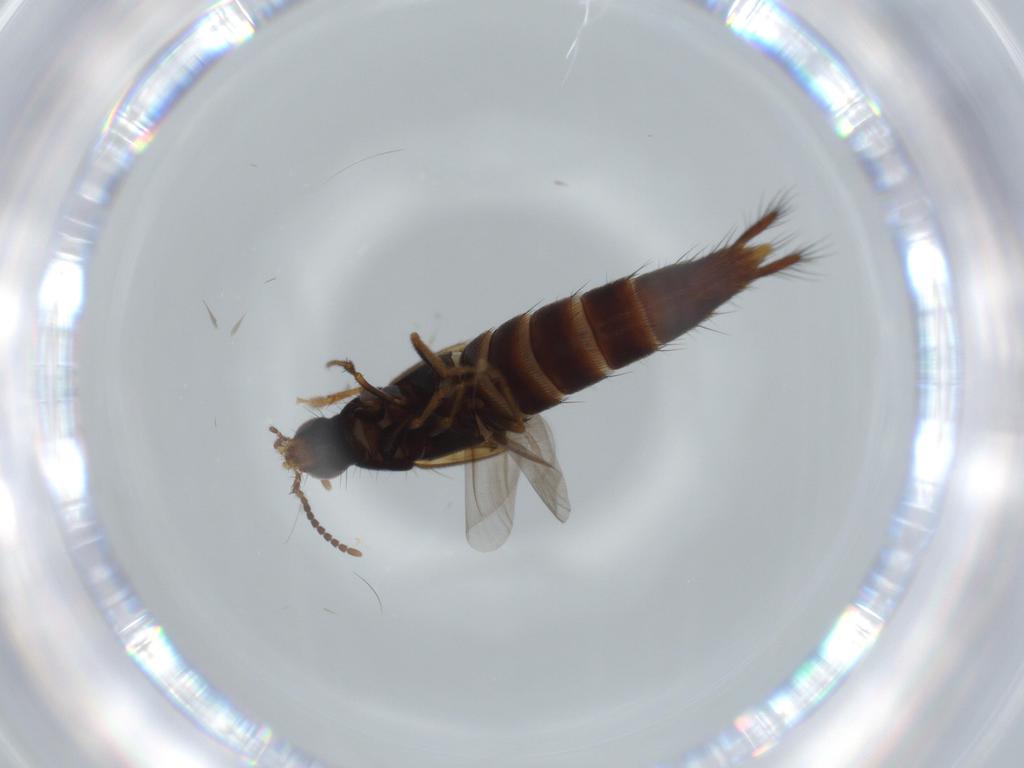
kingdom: Animalia
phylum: Arthropoda
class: Insecta
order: Coleoptera
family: Staphylinidae
